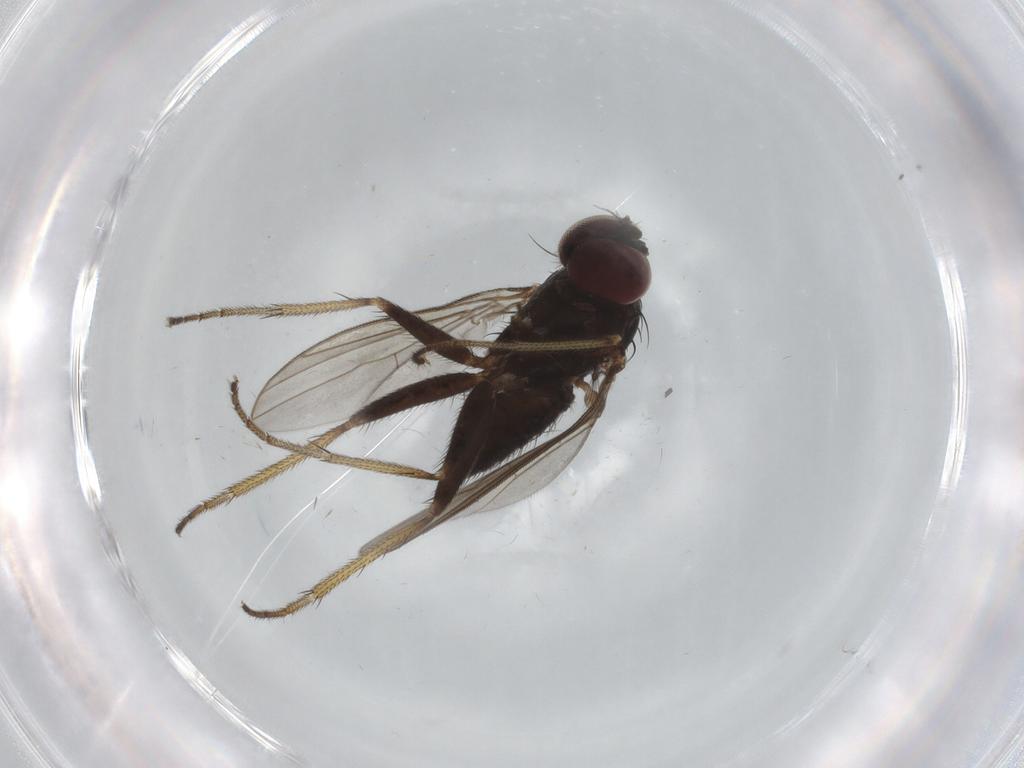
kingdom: Animalia
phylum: Arthropoda
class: Insecta
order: Diptera
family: Dolichopodidae
